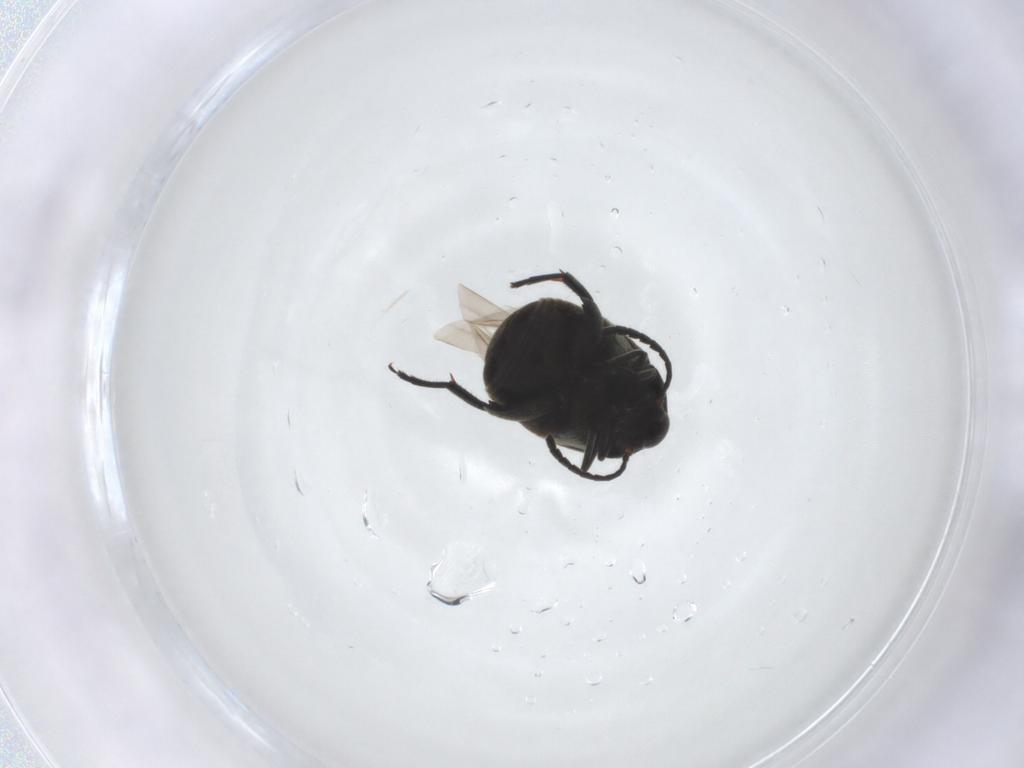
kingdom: Animalia
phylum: Arthropoda
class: Insecta
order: Coleoptera
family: Chrysomelidae
